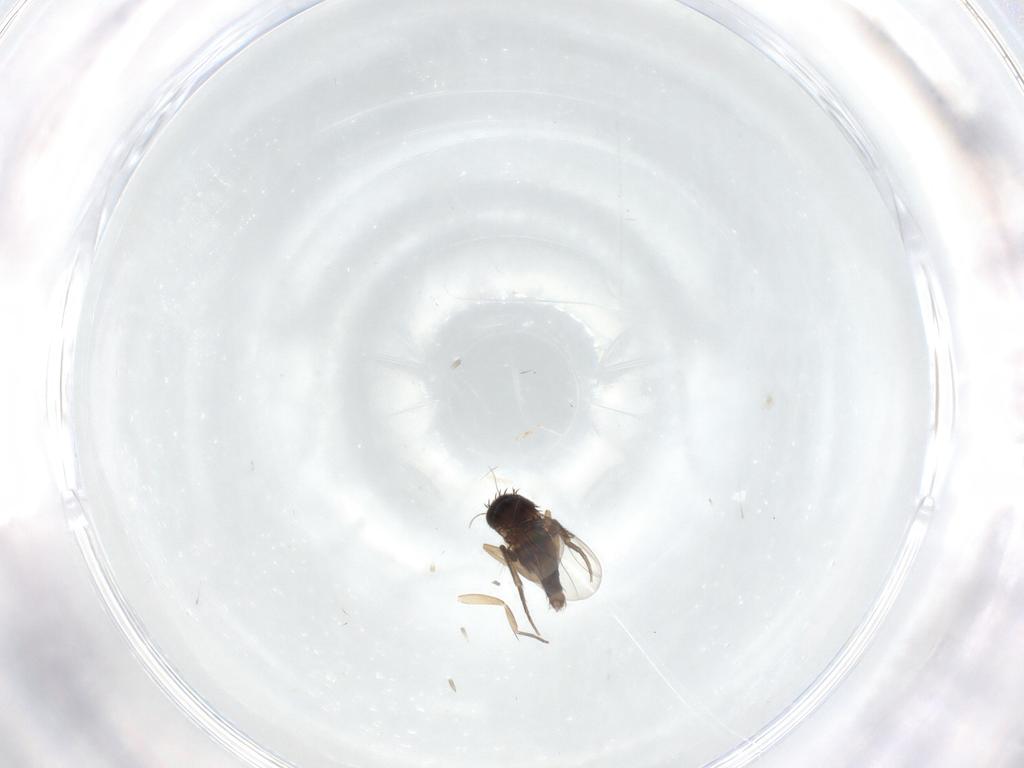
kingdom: Animalia
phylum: Arthropoda
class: Insecta
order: Diptera
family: Phoridae
